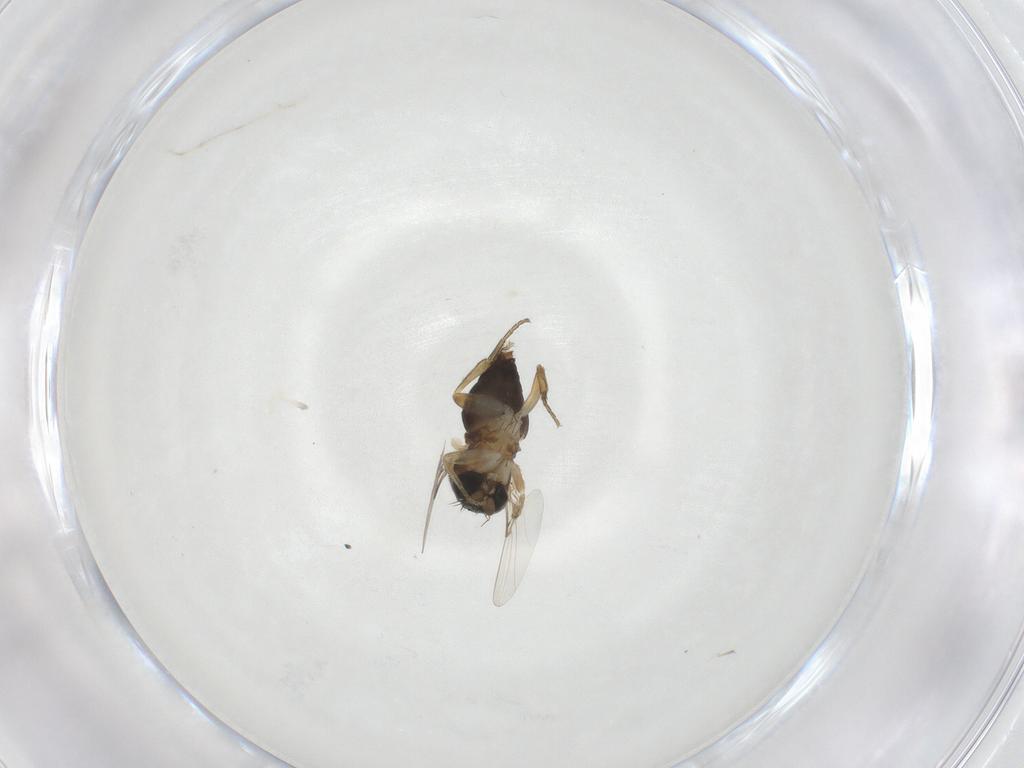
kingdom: Animalia
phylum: Arthropoda
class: Insecta
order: Diptera
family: Phoridae
